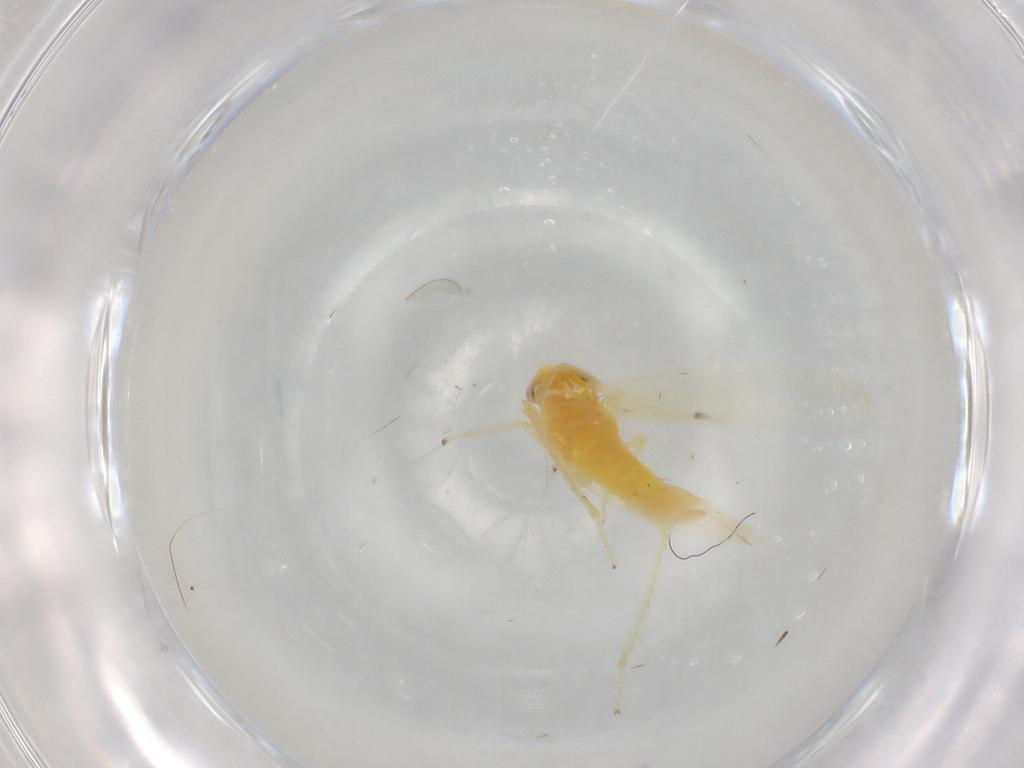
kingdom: Animalia
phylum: Arthropoda
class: Insecta
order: Hemiptera
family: Cicadellidae
